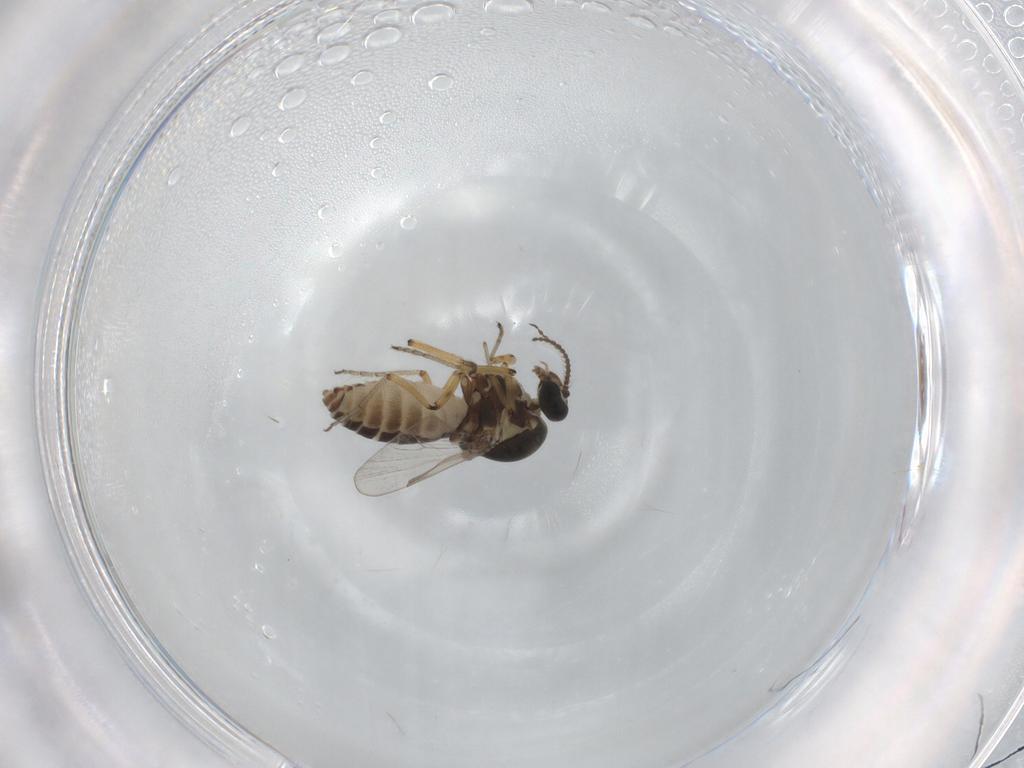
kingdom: Animalia
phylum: Arthropoda
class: Insecta
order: Diptera
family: Ceratopogonidae
